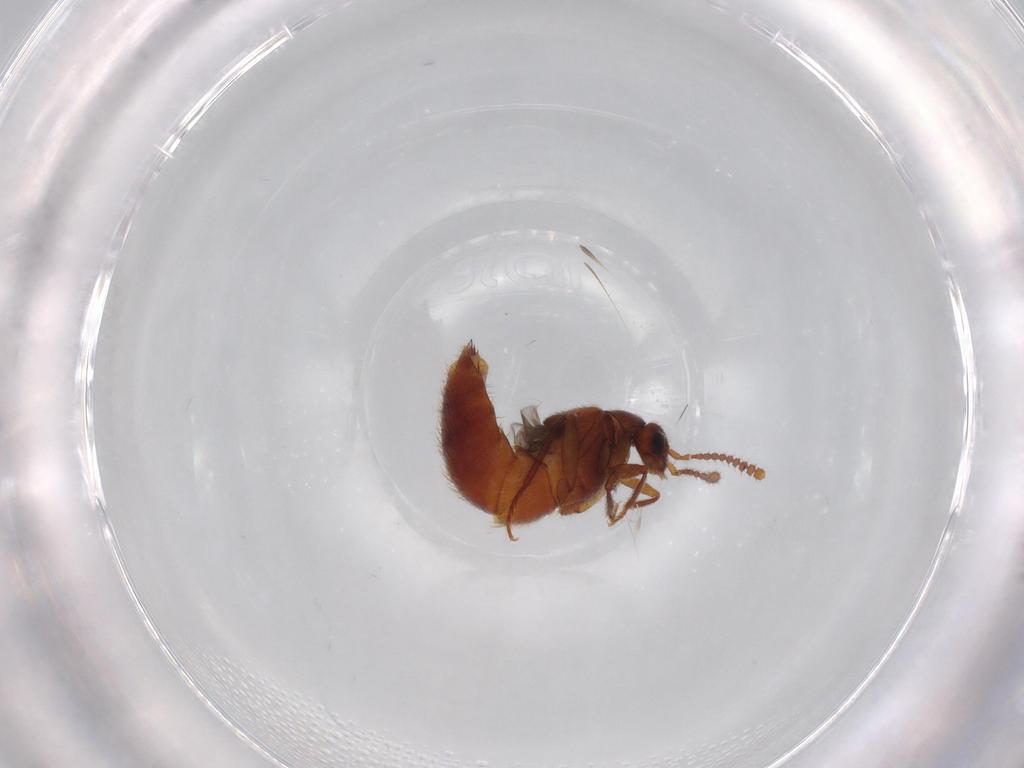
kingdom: Animalia
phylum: Arthropoda
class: Insecta
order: Coleoptera
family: Staphylinidae
